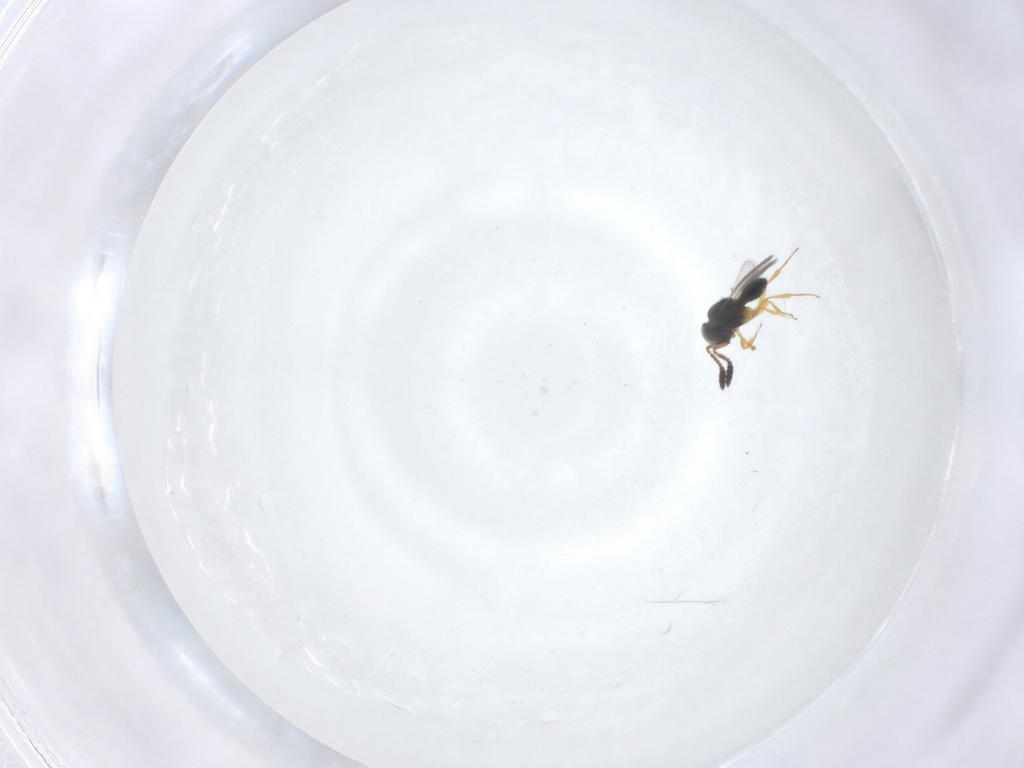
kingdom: Animalia
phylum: Arthropoda
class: Insecta
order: Hymenoptera
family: Scelionidae
